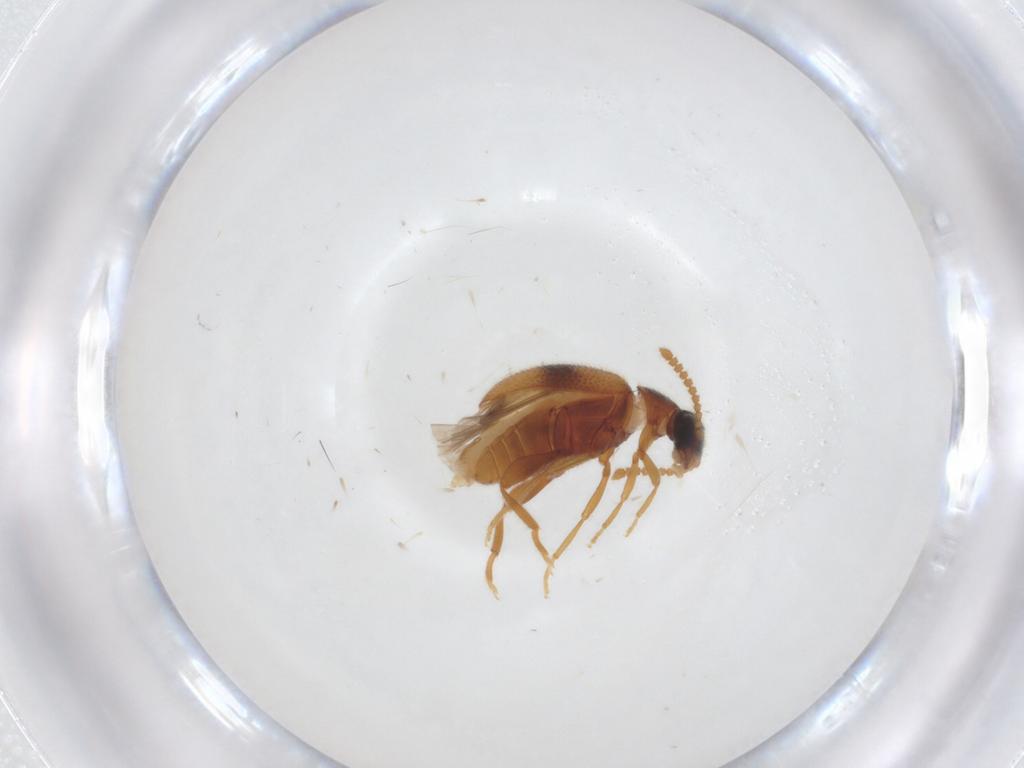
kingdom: Animalia
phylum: Arthropoda
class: Insecta
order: Coleoptera
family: Aderidae
